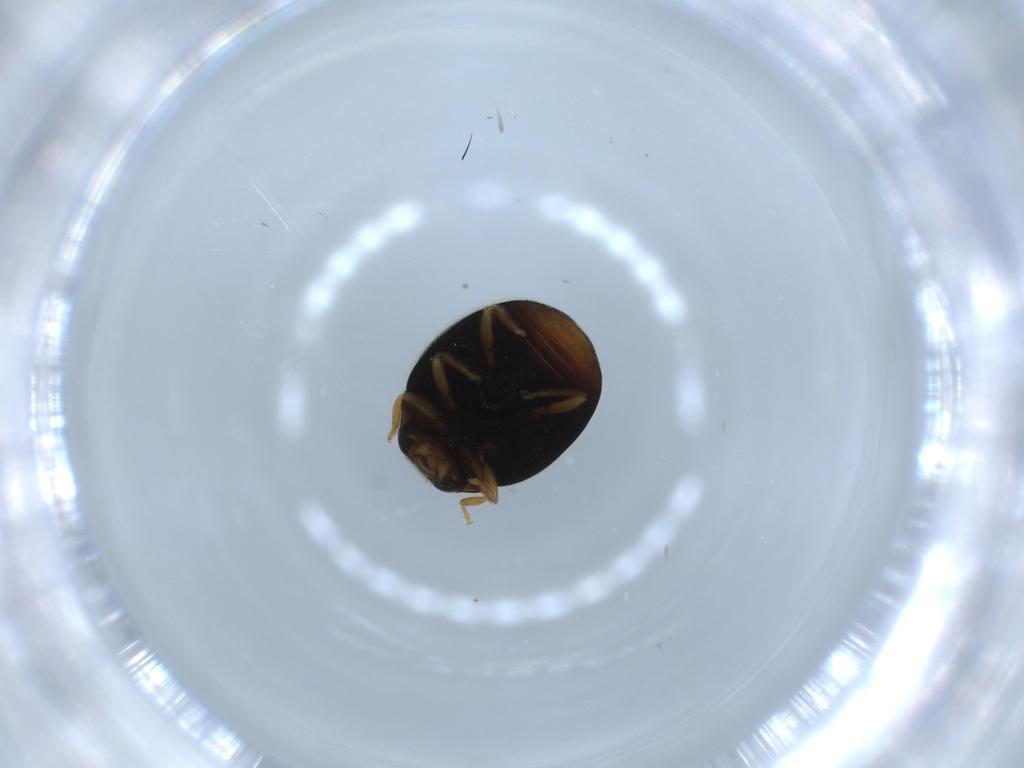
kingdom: Animalia
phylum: Arthropoda
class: Insecta
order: Coleoptera
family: Coccinellidae
